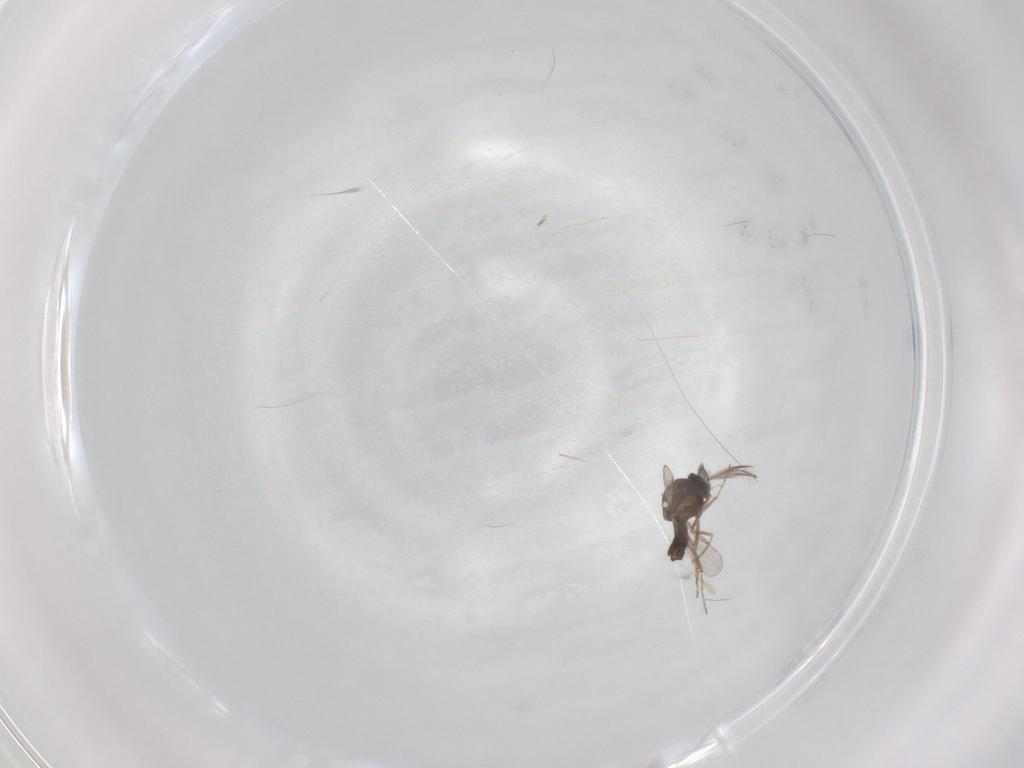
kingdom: Animalia
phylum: Arthropoda
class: Insecta
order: Diptera
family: Ceratopogonidae
